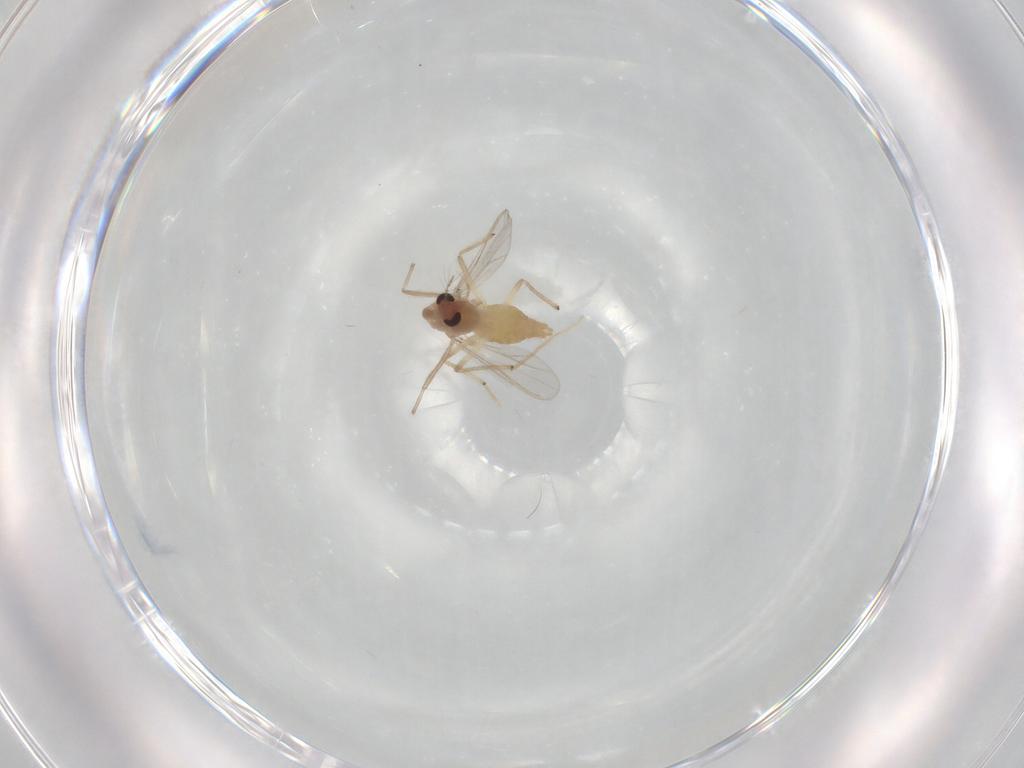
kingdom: Animalia
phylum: Arthropoda
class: Insecta
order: Diptera
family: Chironomidae
